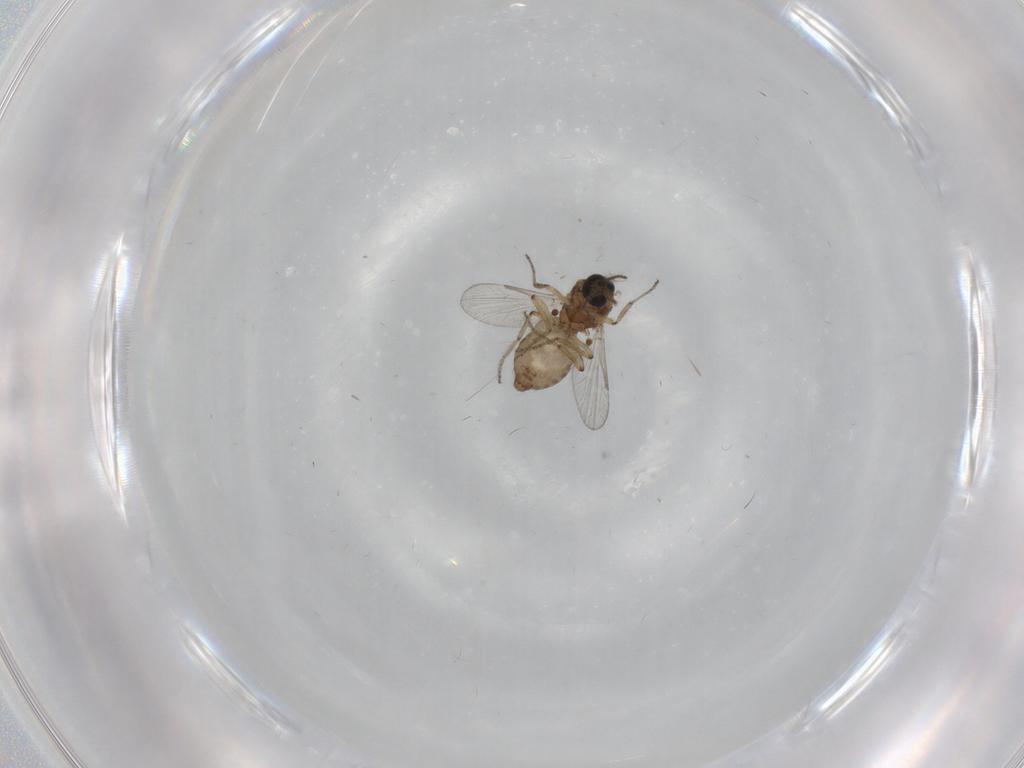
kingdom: Animalia
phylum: Arthropoda
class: Insecta
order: Diptera
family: Ceratopogonidae
